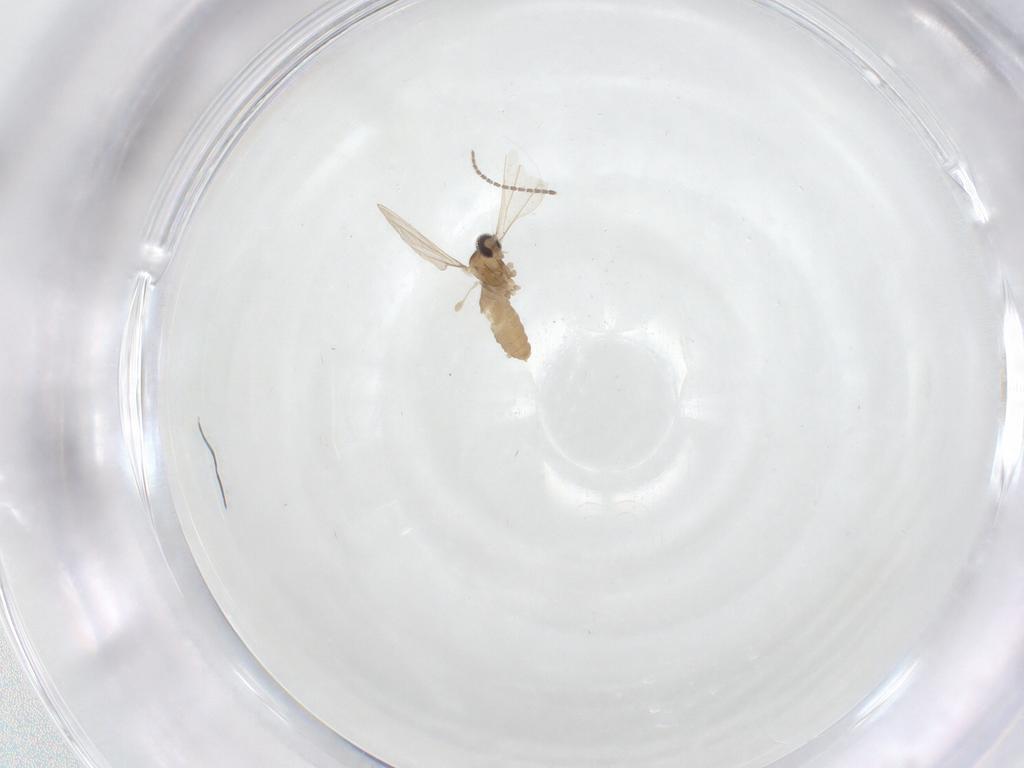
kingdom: Animalia
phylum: Arthropoda
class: Insecta
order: Diptera
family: Cecidomyiidae
